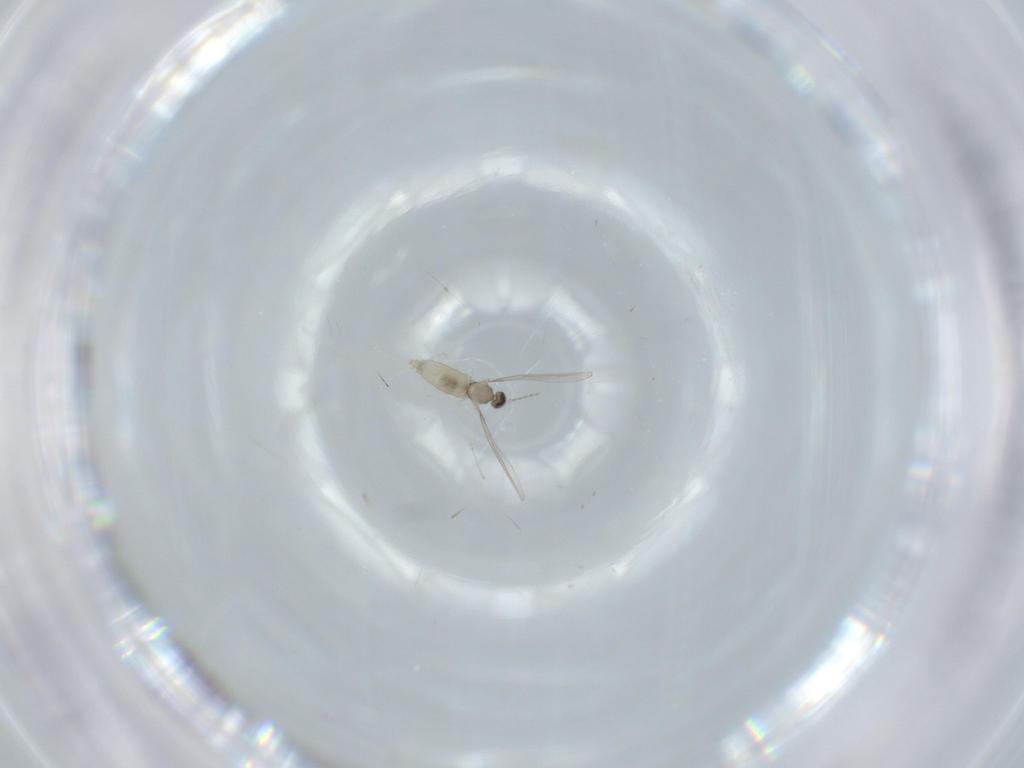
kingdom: Animalia
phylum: Arthropoda
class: Insecta
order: Diptera
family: Cecidomyiidae
